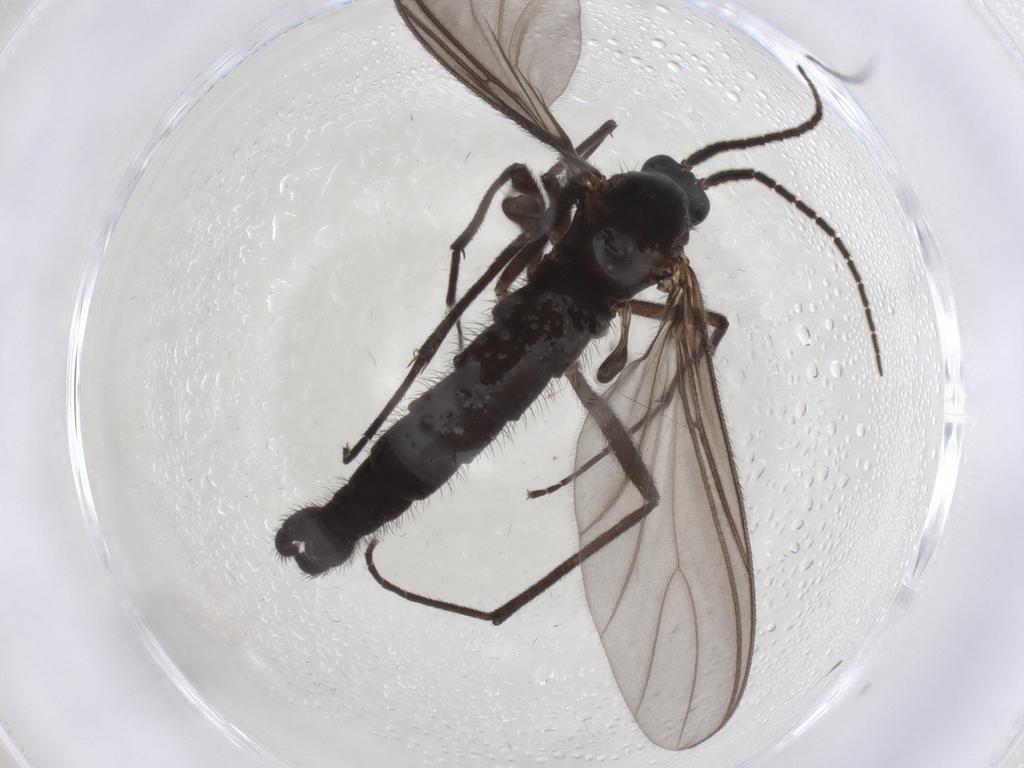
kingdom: Animalia
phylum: Arthropoda
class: Insecta
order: Diptera
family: Sciaridae
